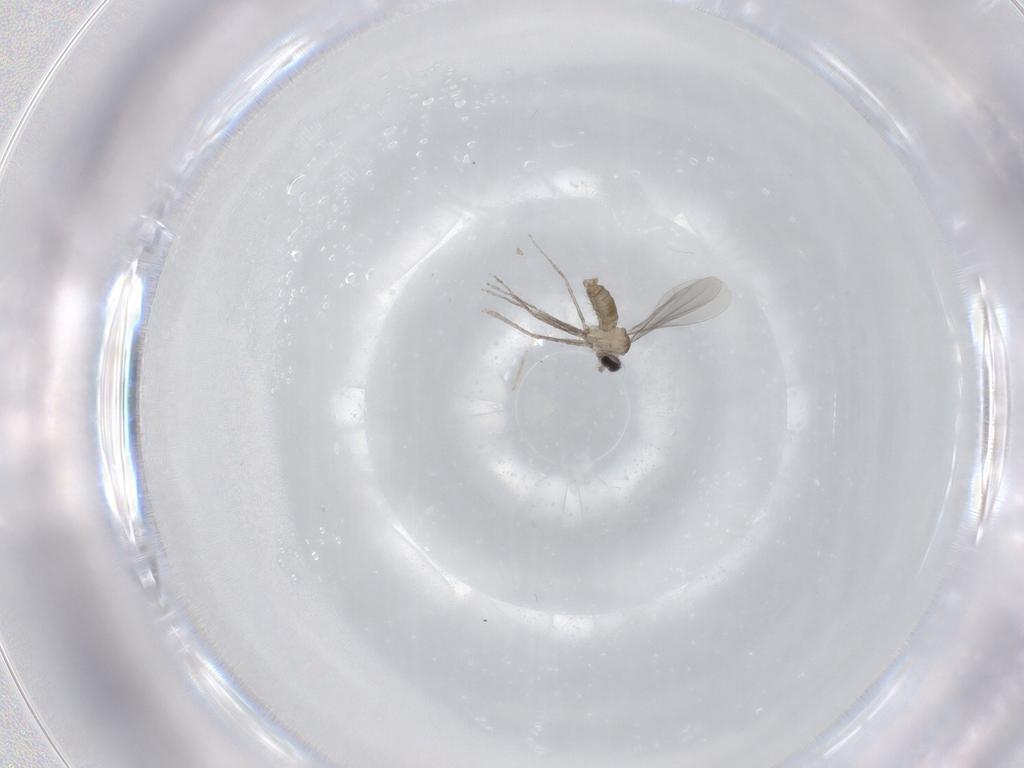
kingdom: Animalia
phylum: Arthropoda
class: Insecta
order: Diptera
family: Cecidomyiidae
